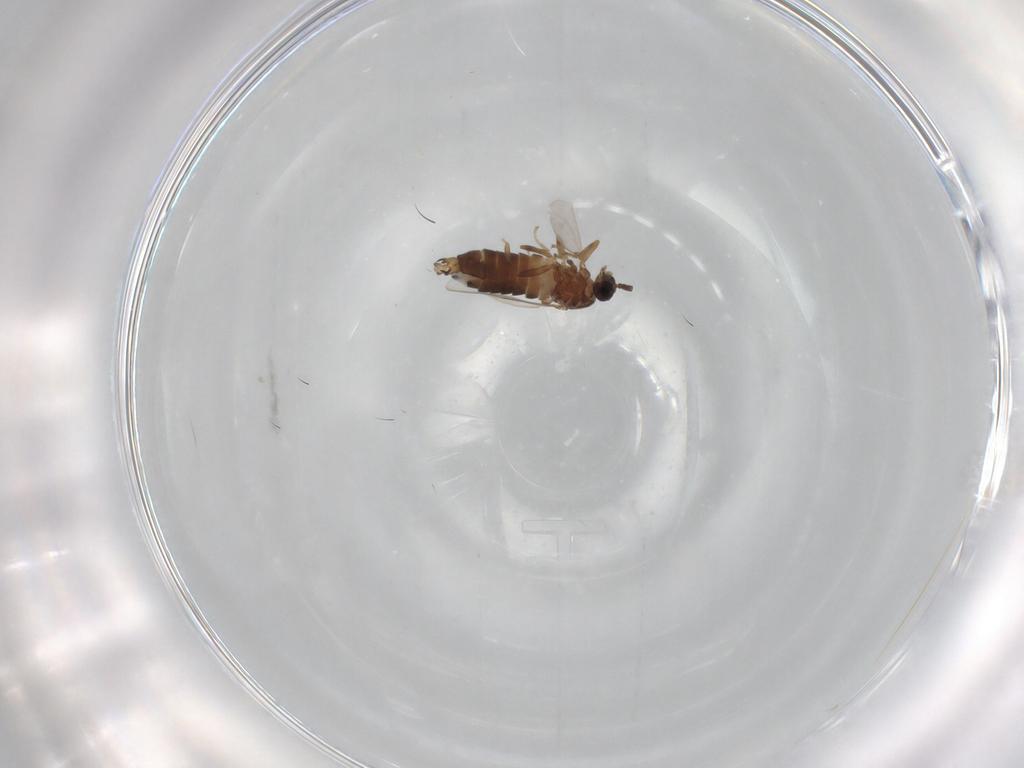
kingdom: Animalia
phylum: Arthropoda
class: Insecta
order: Diptera
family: Scatopsidae
